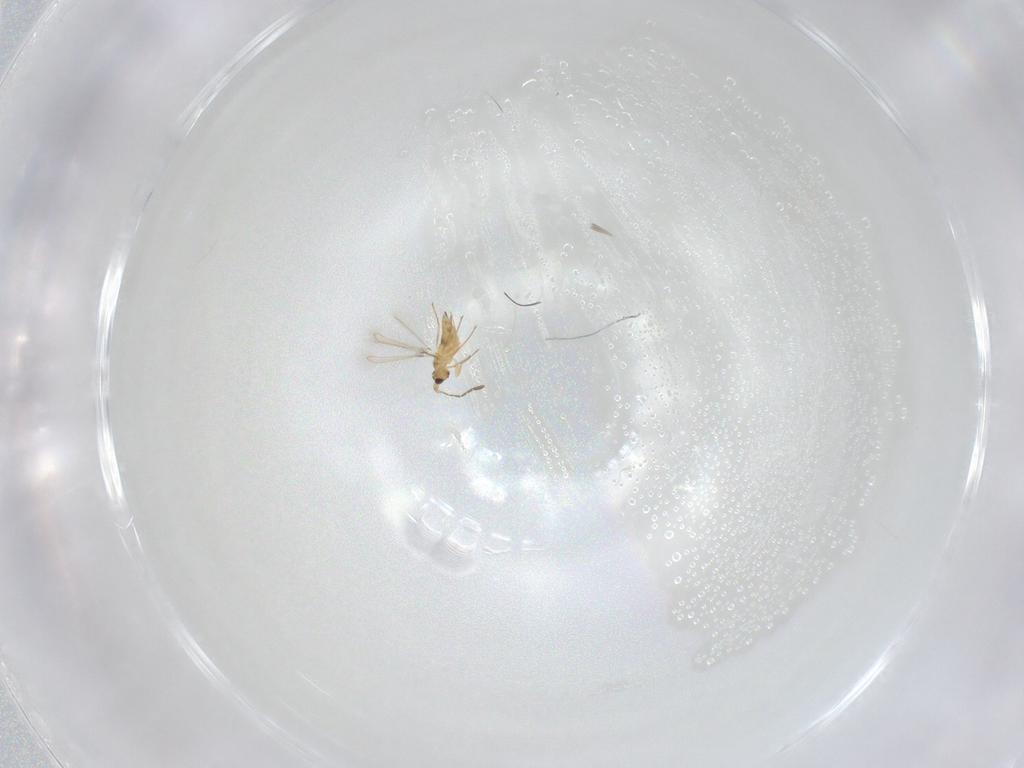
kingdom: Animalia
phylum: Arthropoda
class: Insecta
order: Hymenoptera
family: Mymaridae
